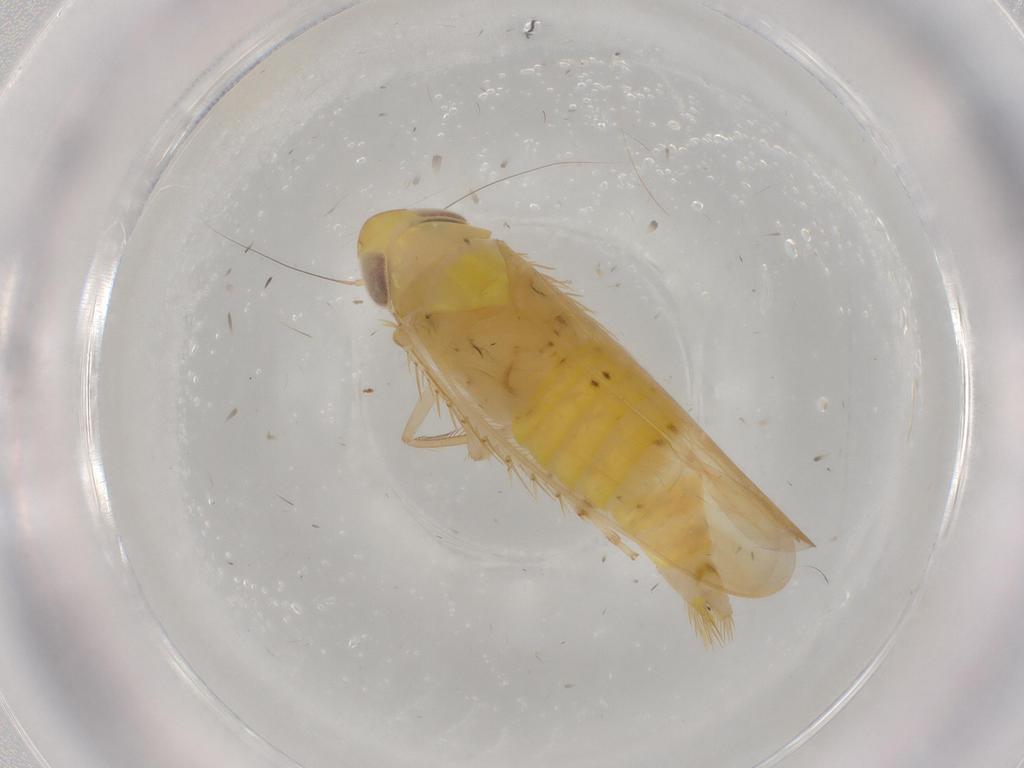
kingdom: Animalia
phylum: Arthropoda
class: Insecta
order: Hemiptera
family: Cicadellidae
